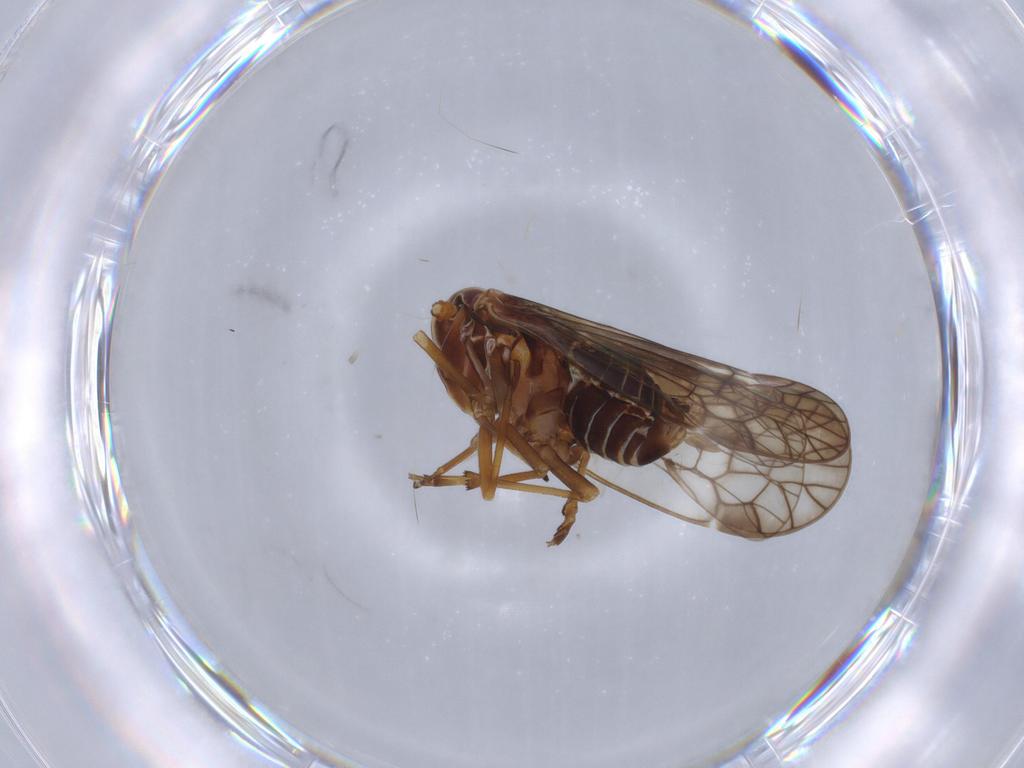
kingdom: Animalia
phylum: Arthropoda
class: Insecta
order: Hemiptera
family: Kinnaridae
